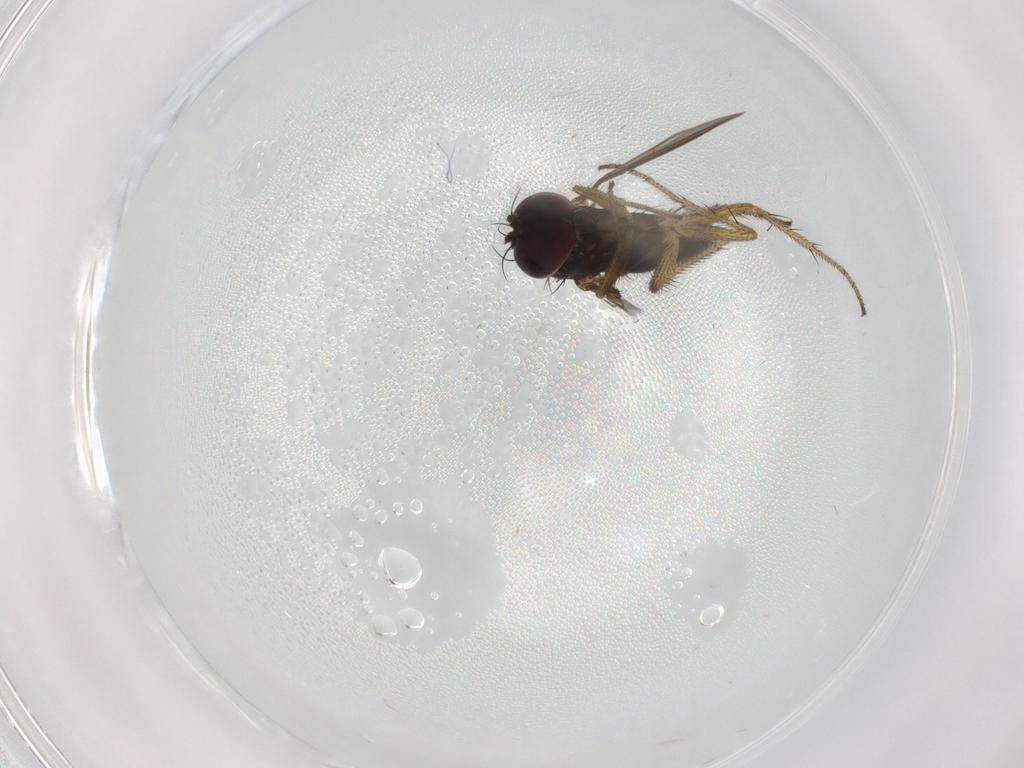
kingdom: Animalia
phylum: Arthropoda
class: Insecta
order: Diptera
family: Dolichopodidae
